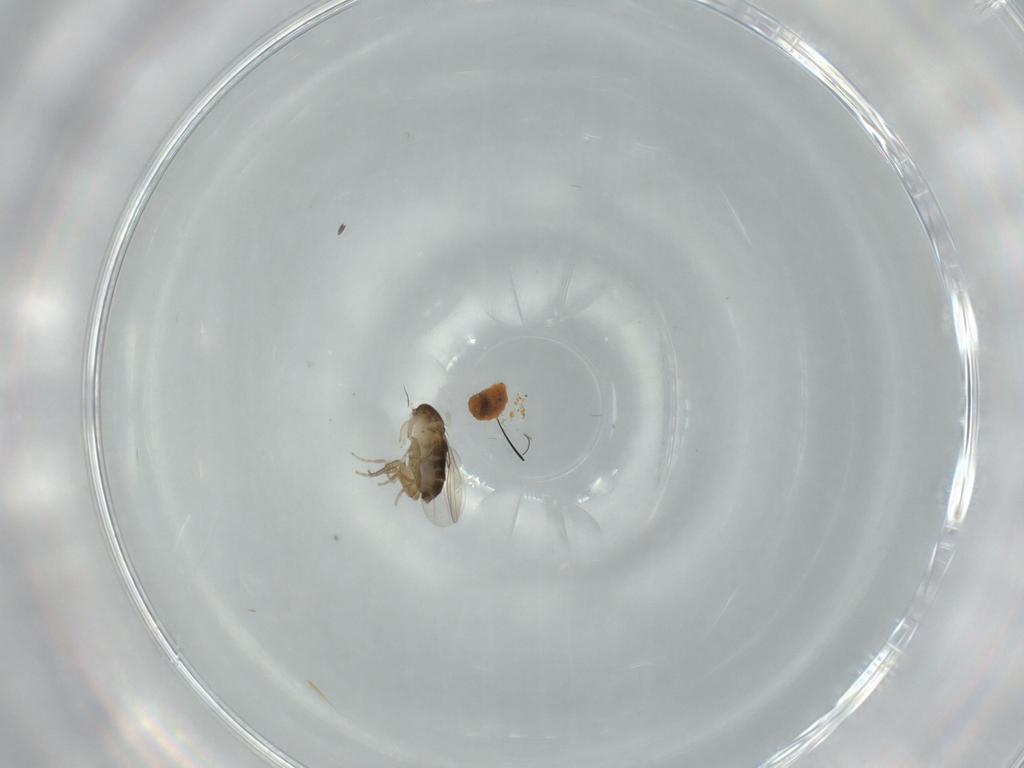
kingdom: Animalia
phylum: Arthropoda
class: Insecta
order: Diptera
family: Phoridae
